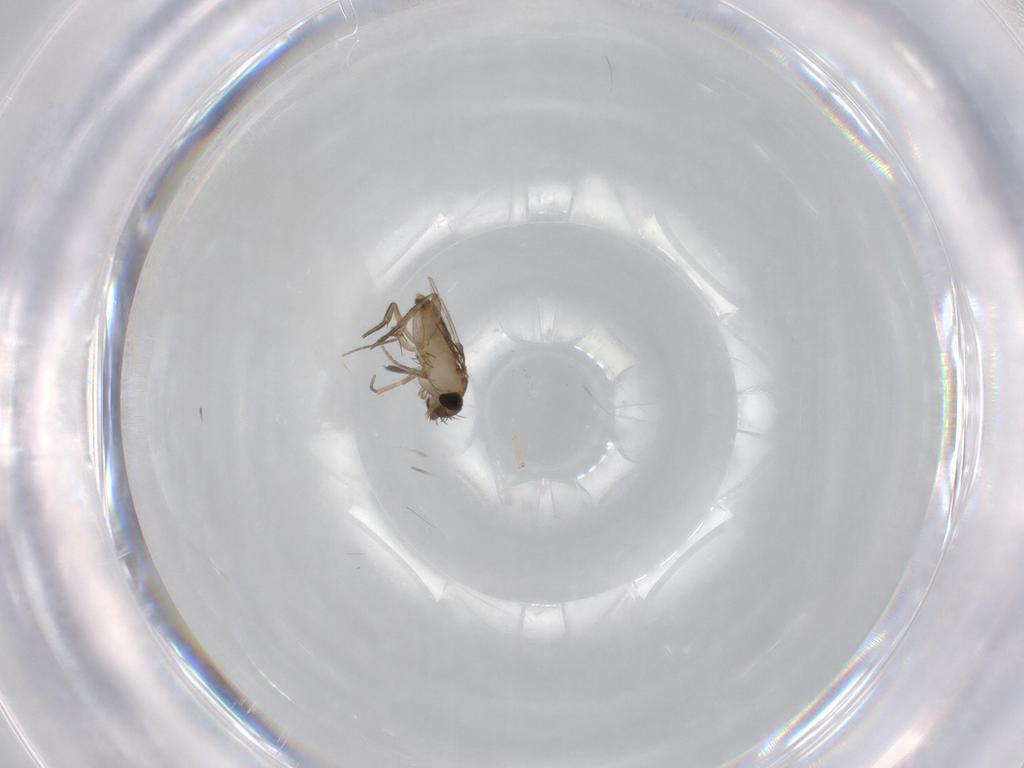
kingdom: Animalia
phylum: Arthropoda
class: Insecta
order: Diptera
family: Phoridae
